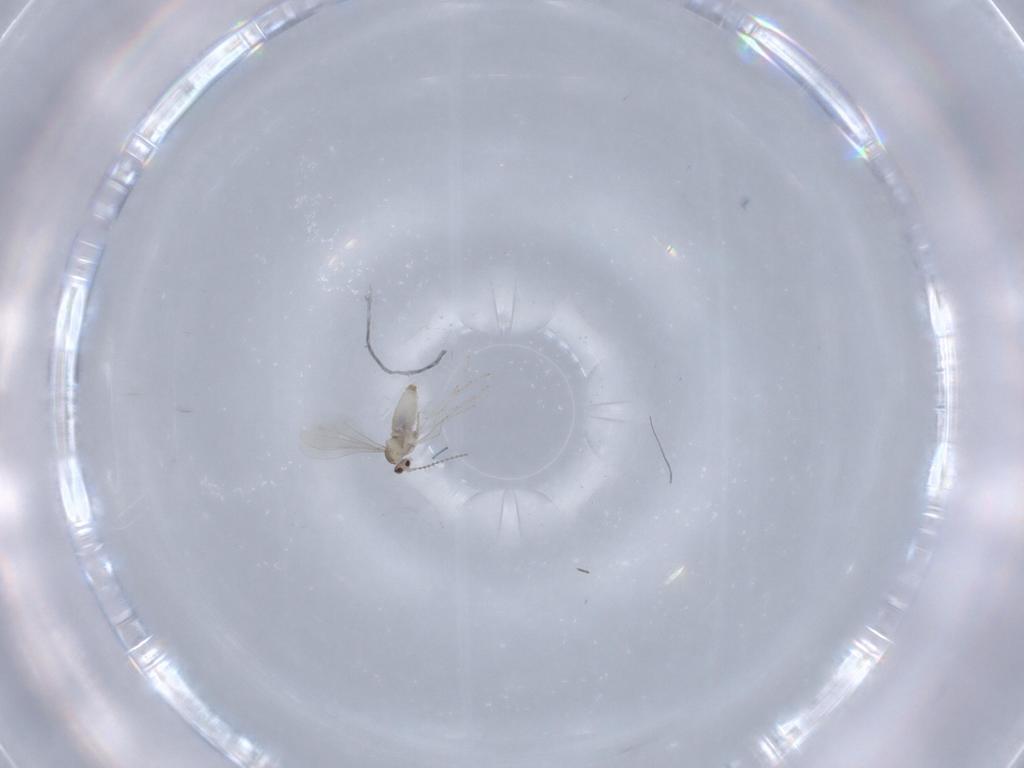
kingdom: Animalia
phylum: Arthropoda
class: Insecta
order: Diptera
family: Cecidomyiidae
